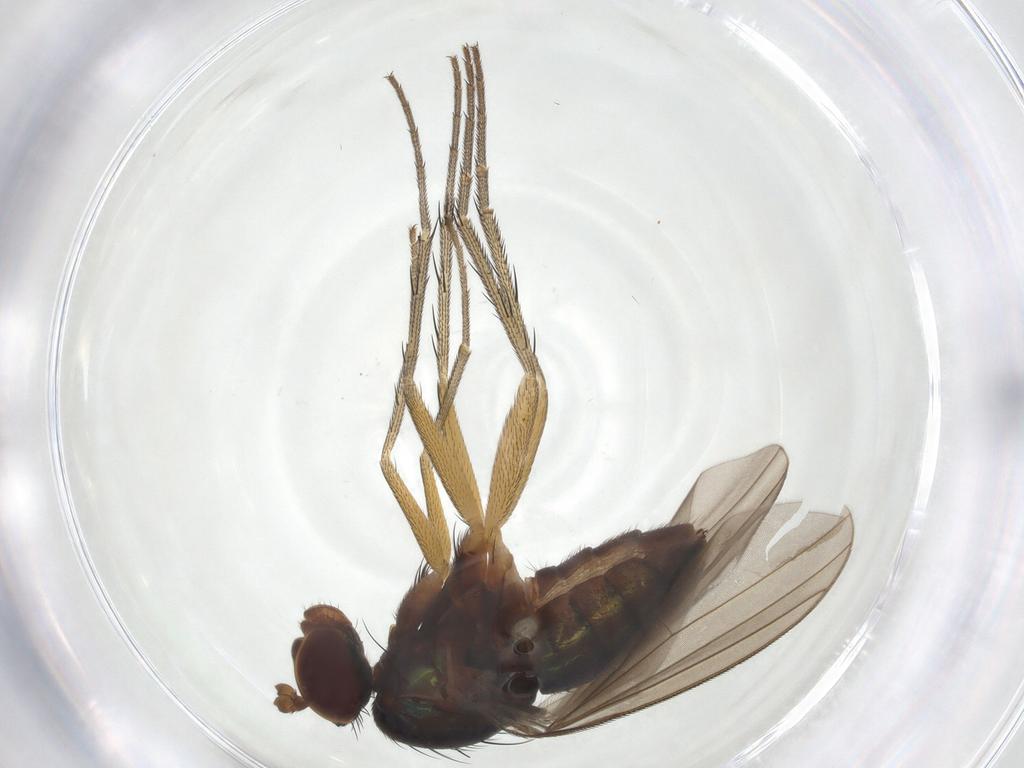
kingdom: Animalia
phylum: Arthropoda
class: Insecta
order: Diptera
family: Dolichopodidae
